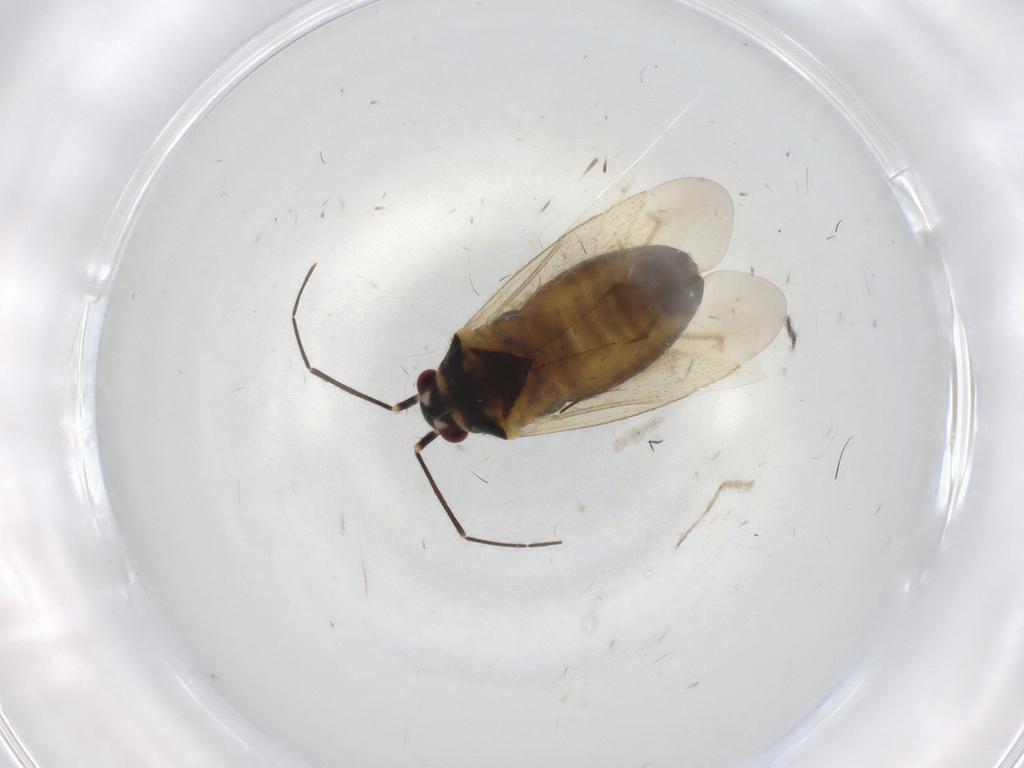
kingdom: Animalia
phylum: Arthropoda
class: Insecta
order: Hemiptera
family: Miridae
